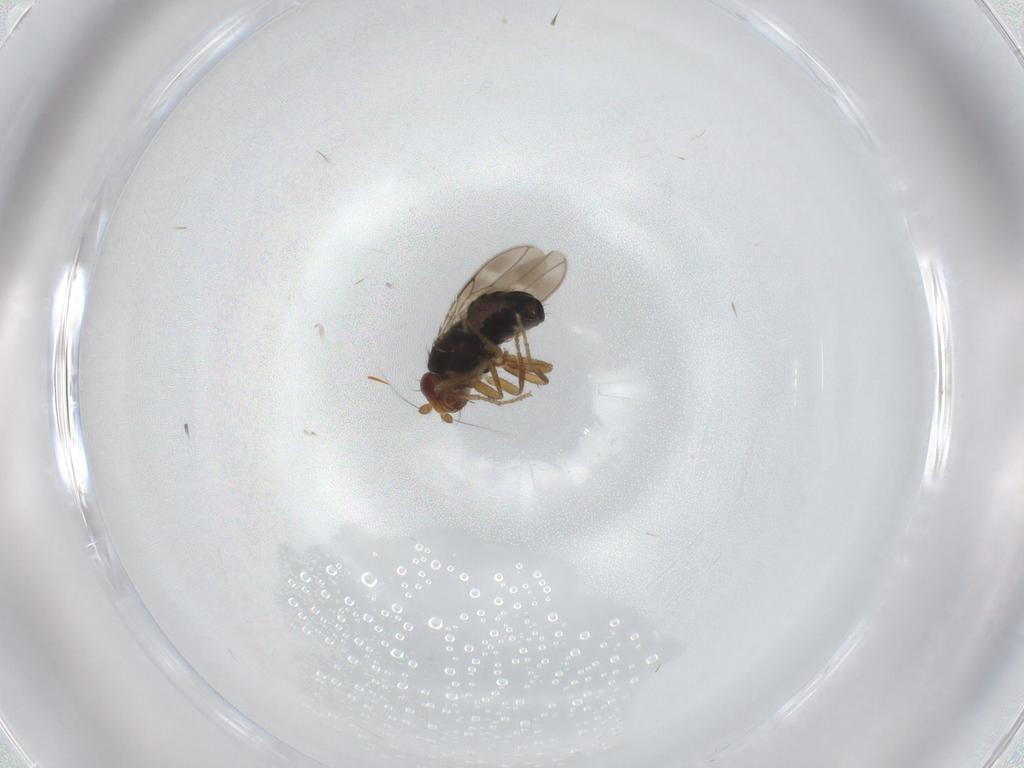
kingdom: Animalia
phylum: Arthropoda
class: Insecta
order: Diptera
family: Sphaeroceridae
